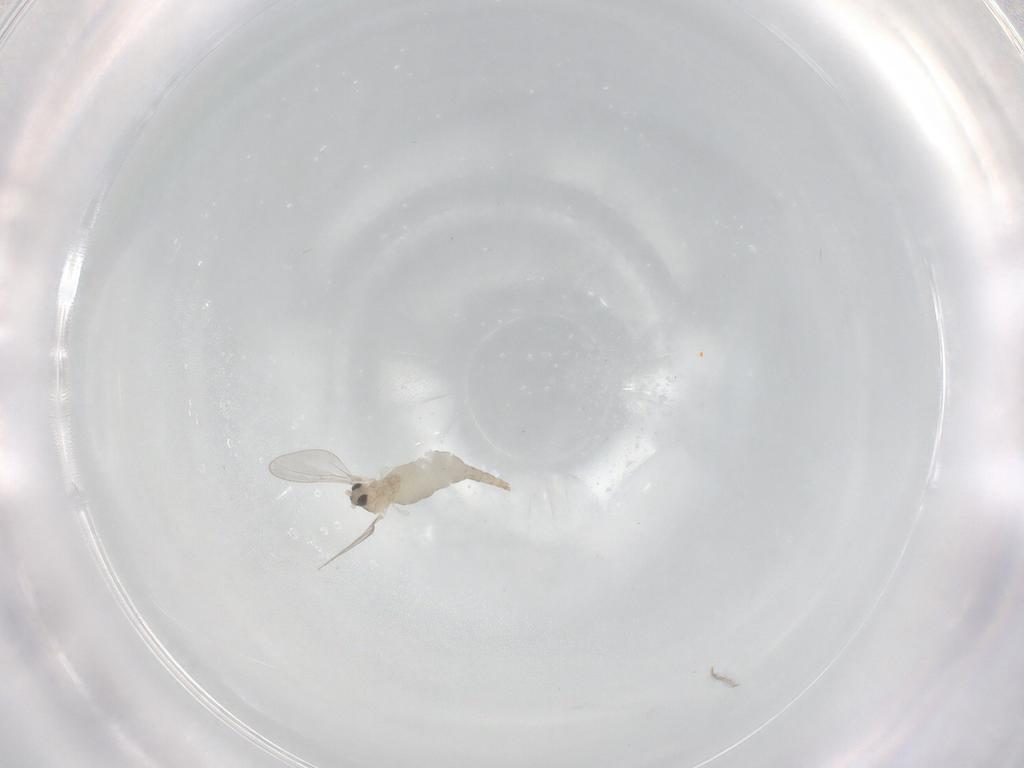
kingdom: Animalia
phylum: Arthropoda
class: Insecta
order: Diptera
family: Cecidomyiidae
